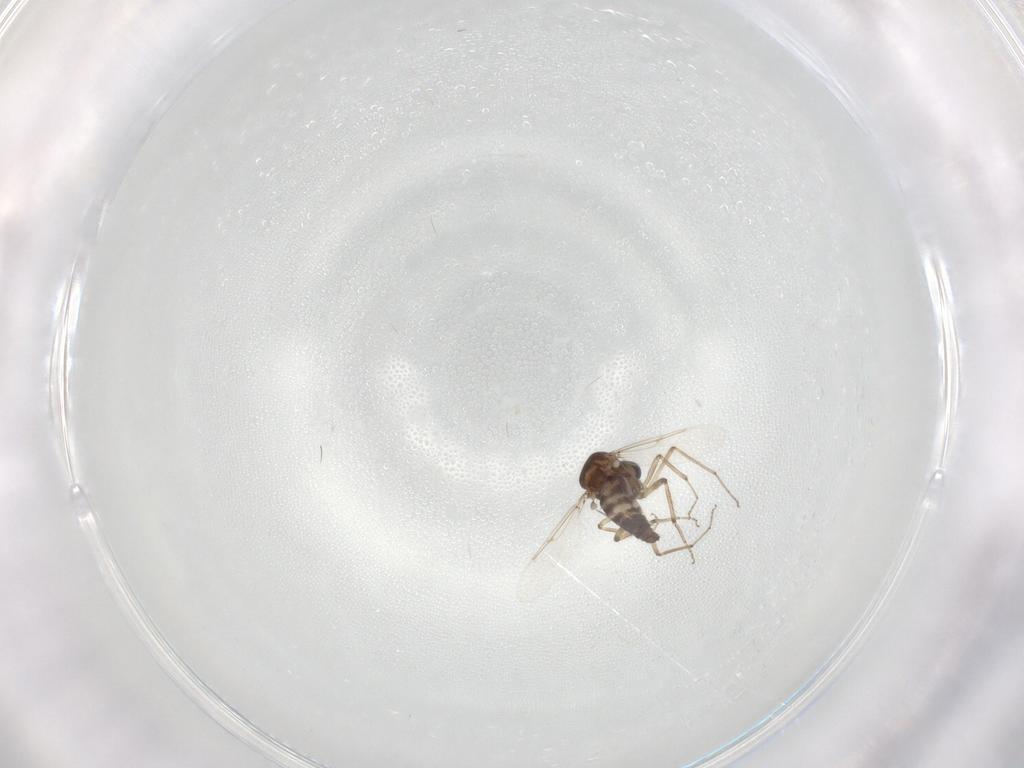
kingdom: Animalia
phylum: Arthropoda
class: Insecta
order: Diptera
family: Ceratopogonidae
